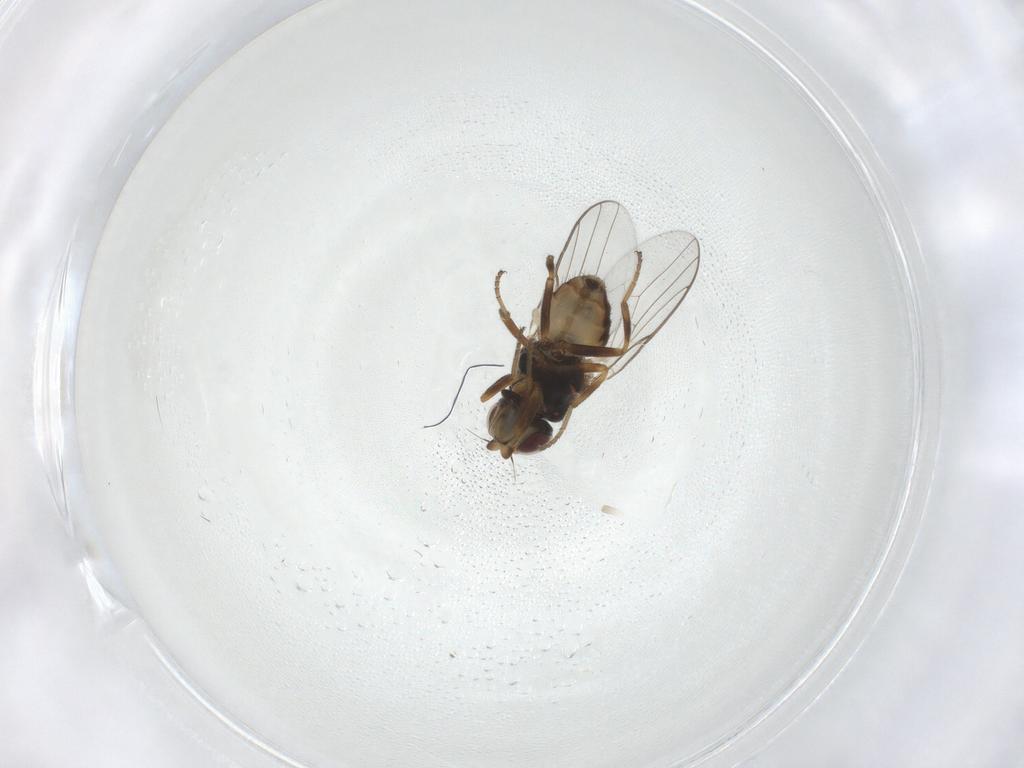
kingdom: Animalia
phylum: Arthropoda
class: Insecta
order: Diptera
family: Chloropidae
